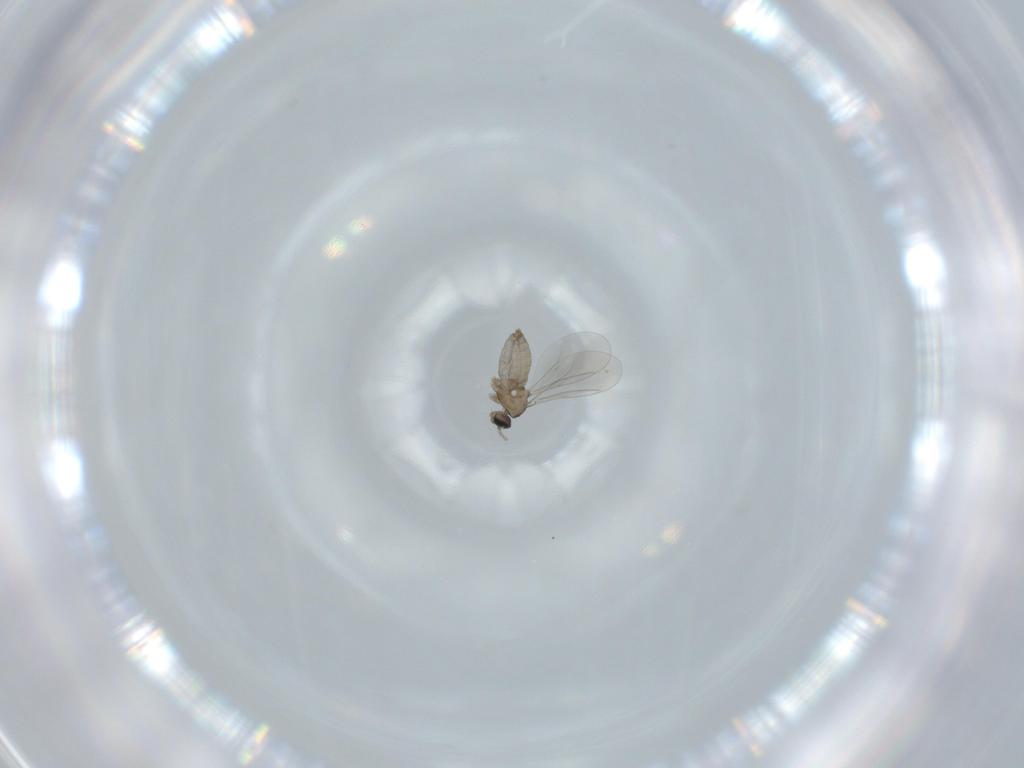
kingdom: Animalia
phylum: Arthropoda
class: Insecta
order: Diptera
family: Cecidomyiidae
